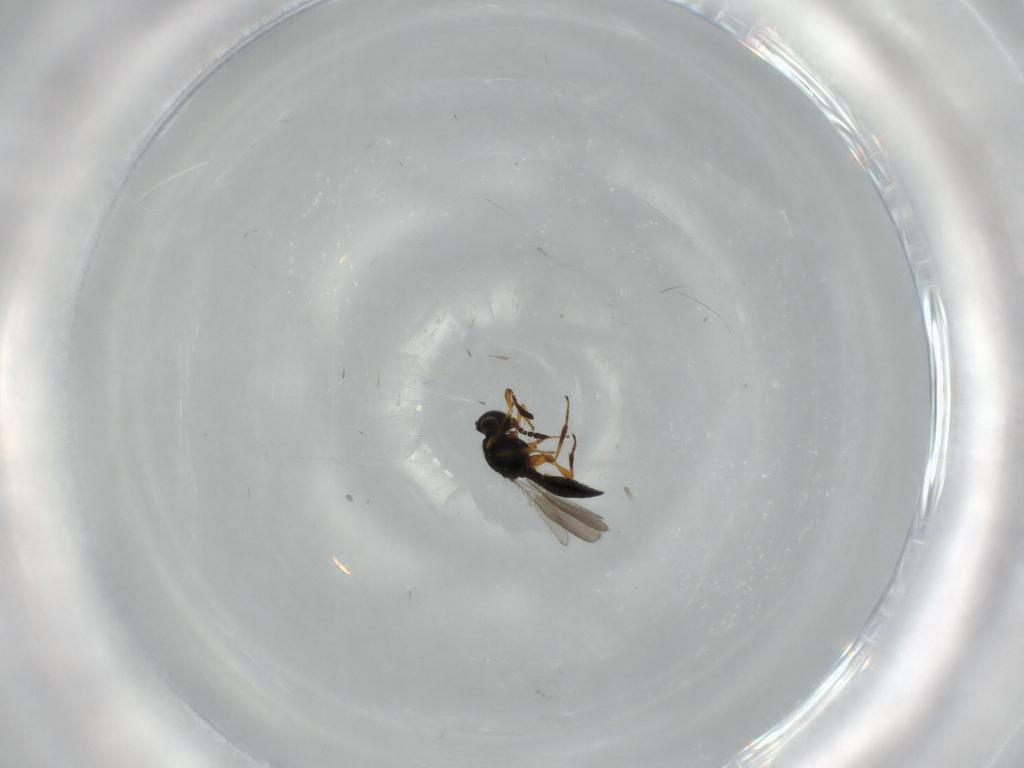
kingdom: Animalia
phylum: Arthropoda
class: Insecta
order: Hymenoptera
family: Platygastridae
